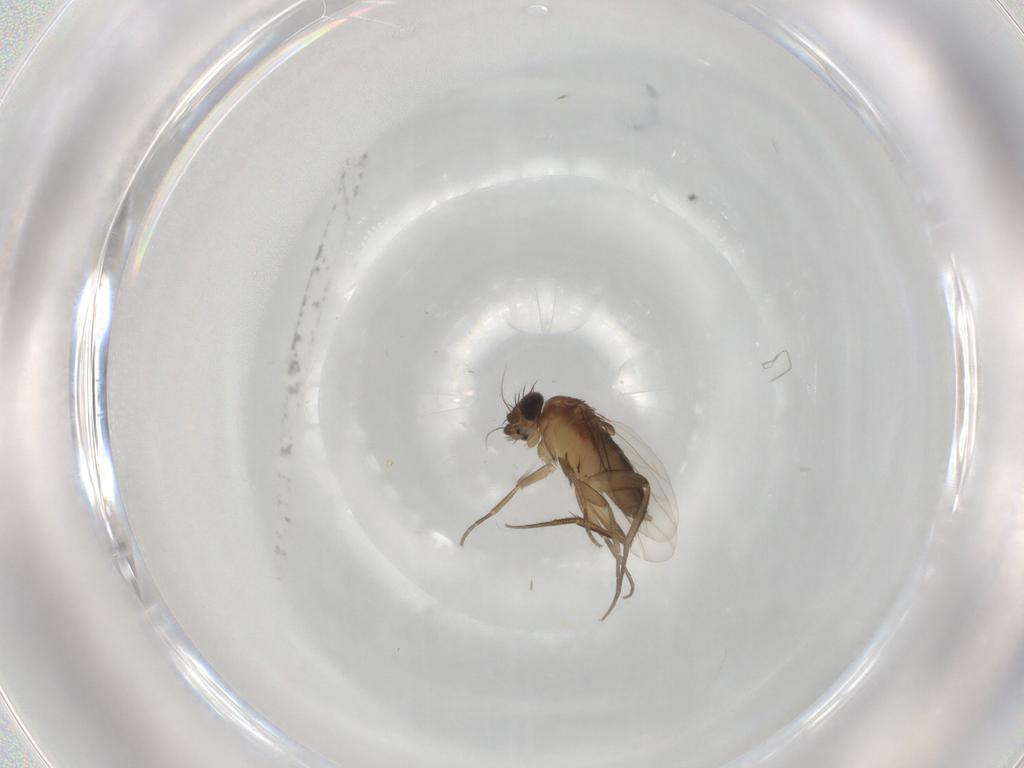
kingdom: Animalia
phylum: Arthropoda
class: Insecta
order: Diptera
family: Phoridae
